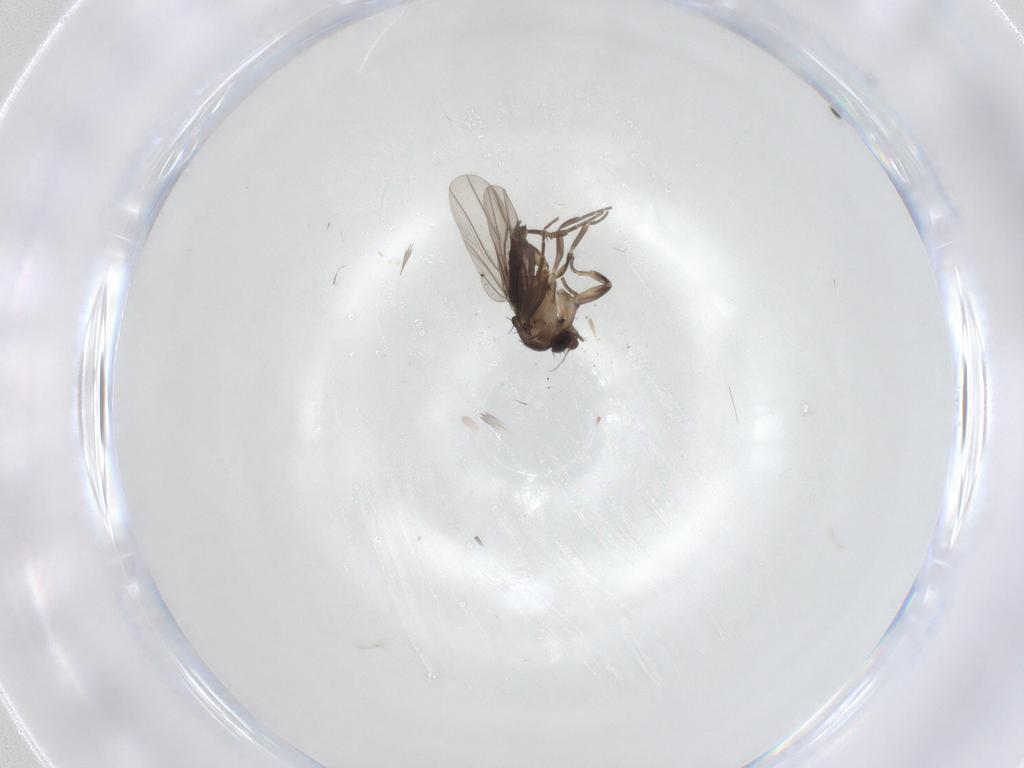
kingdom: Animalia
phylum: Arthropoda
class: Insecta
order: Diptera
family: Phoridae
